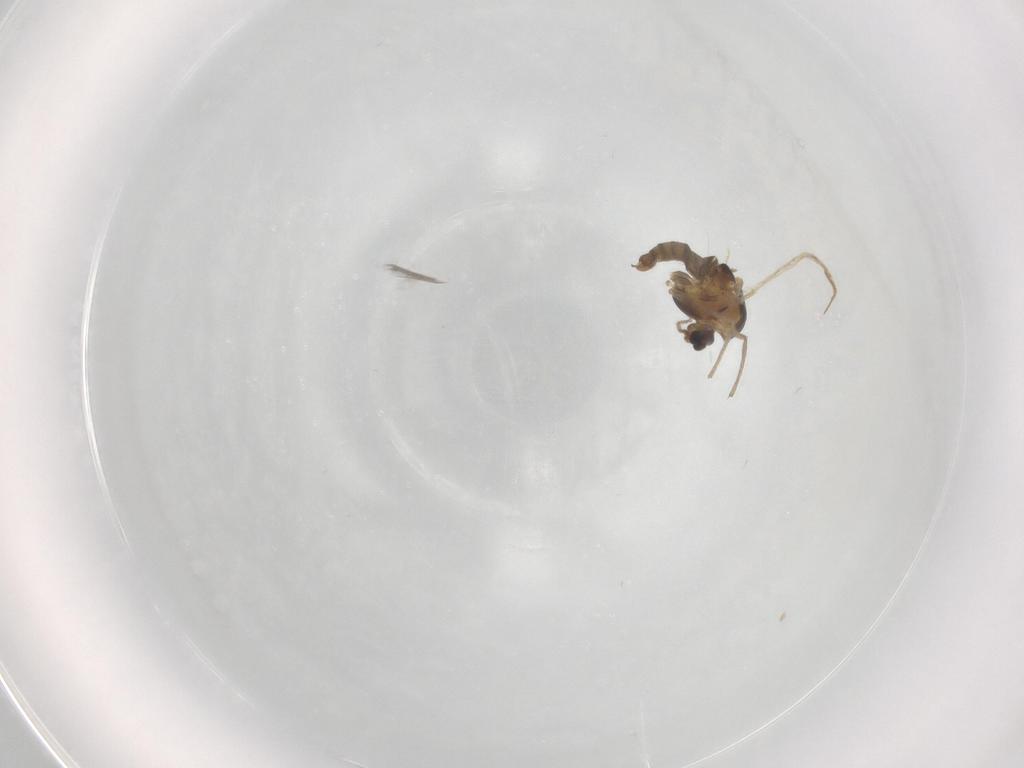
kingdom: Animalia
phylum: Arthropoda
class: Insecta
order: Diptera
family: Chironomidae
